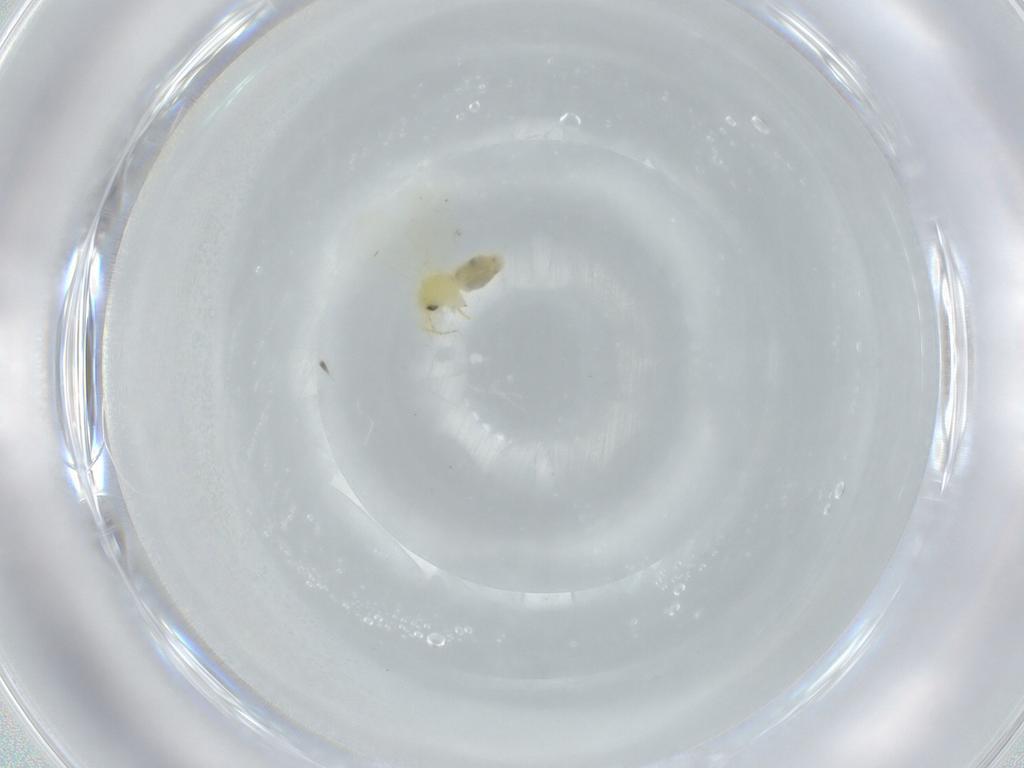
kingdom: Animalia
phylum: Arthropoda
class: Insecta
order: Hemiptera
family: Aleyrodidae
